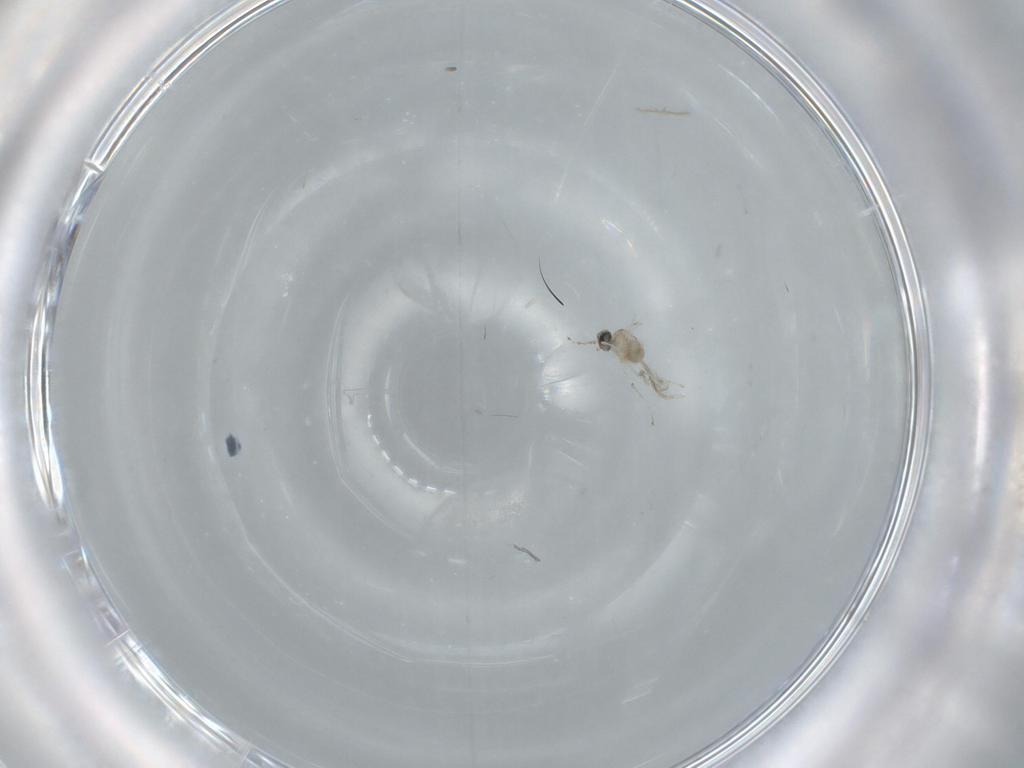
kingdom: Animalia
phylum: Arthropoda
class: Insecta
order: Diptera
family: Cecidomyiidae
